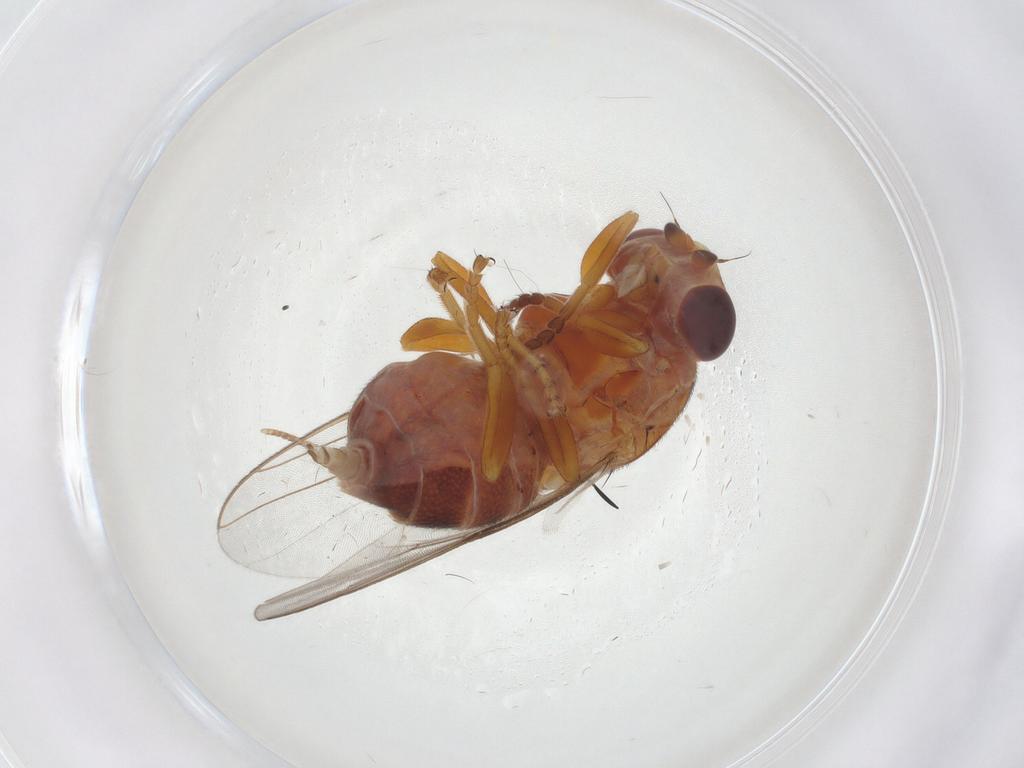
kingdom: Animalia
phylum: Arthropoda
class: Insecta
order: Diptera
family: Chloropidae
